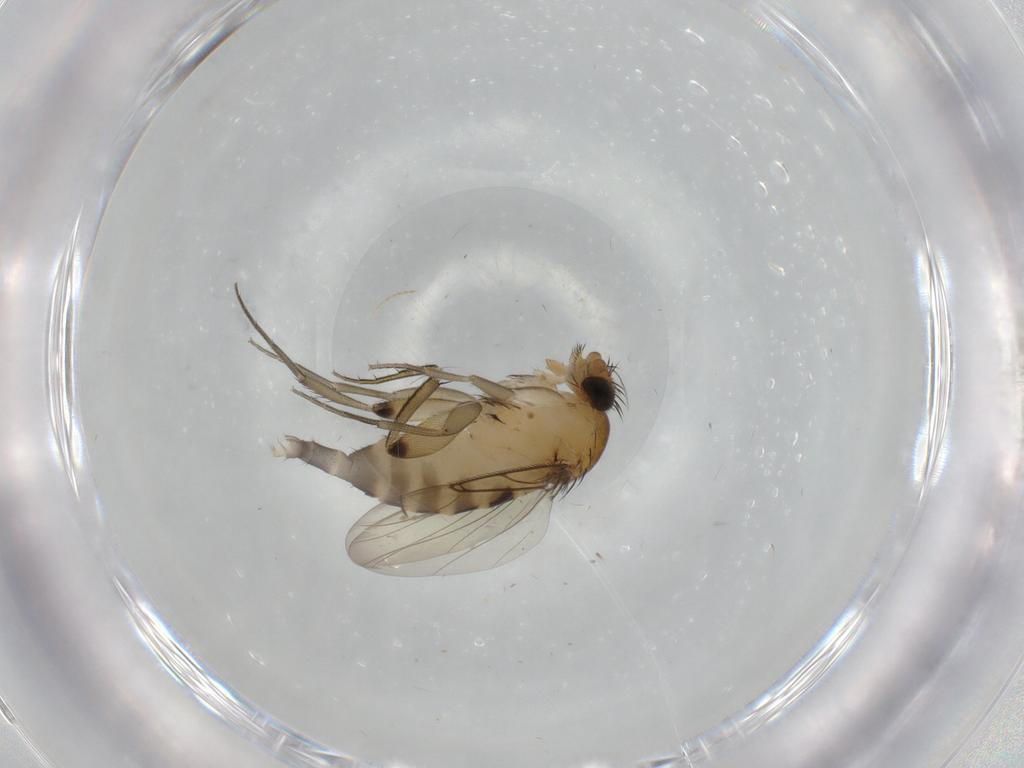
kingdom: Animalia
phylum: Arthropoda
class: Insecta
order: Diptera
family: Phoridae
